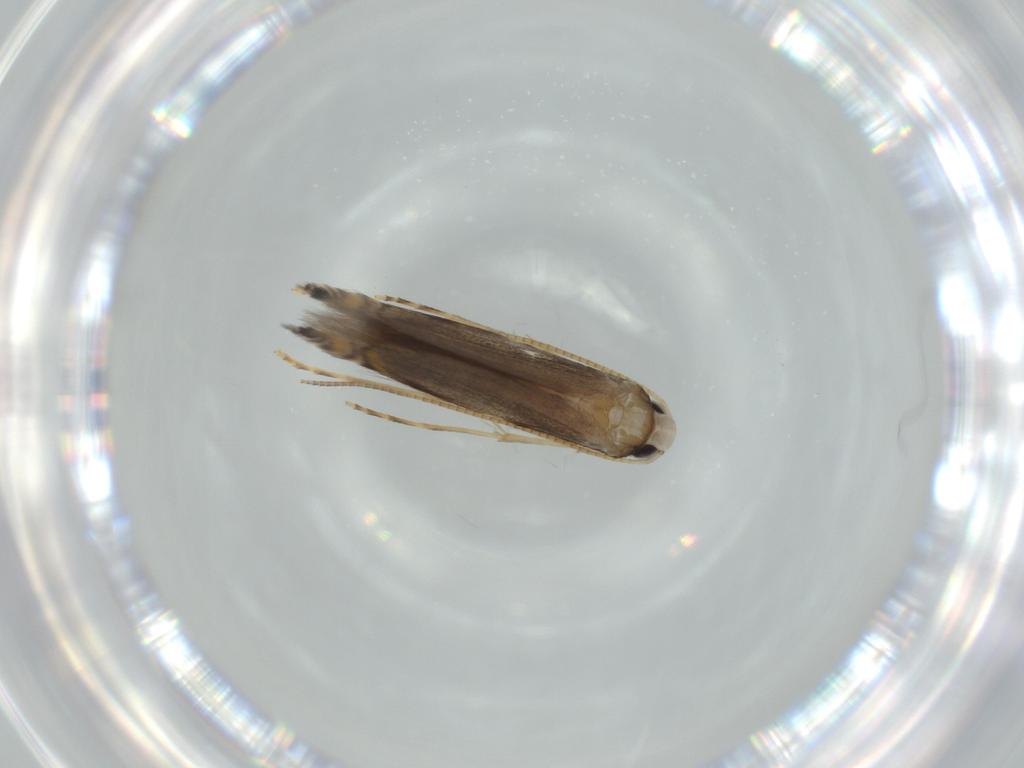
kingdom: Animalia
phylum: Arthropoda
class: Insecta
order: Lepidoptera
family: Gracillariidae
